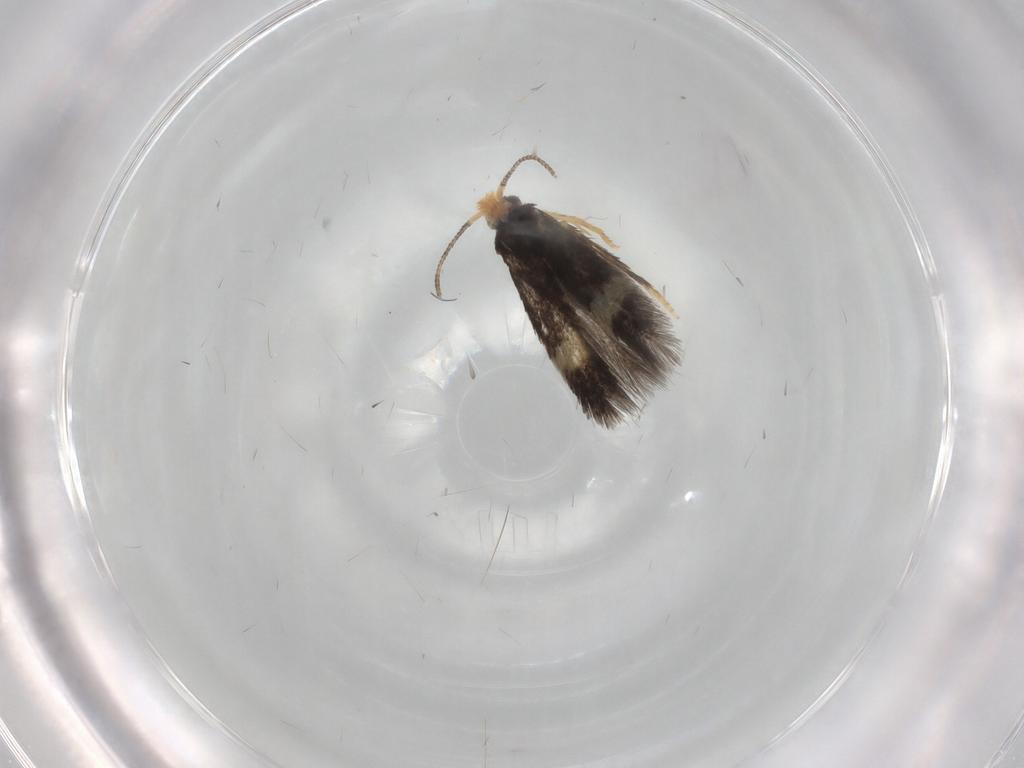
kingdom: Animalia
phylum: Arthropoda
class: Insecta
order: Lepidoptera
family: Nepticulidae
